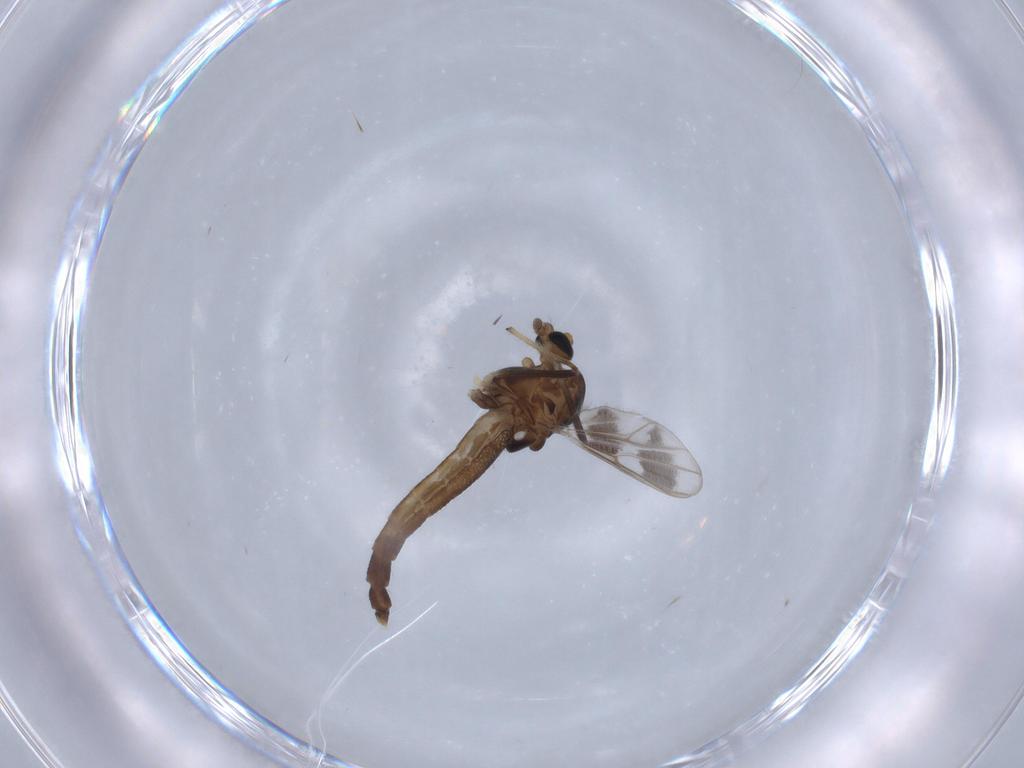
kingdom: Animalia
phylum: Arthropoda
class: Insecta
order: Diptera
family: Chironomidae
